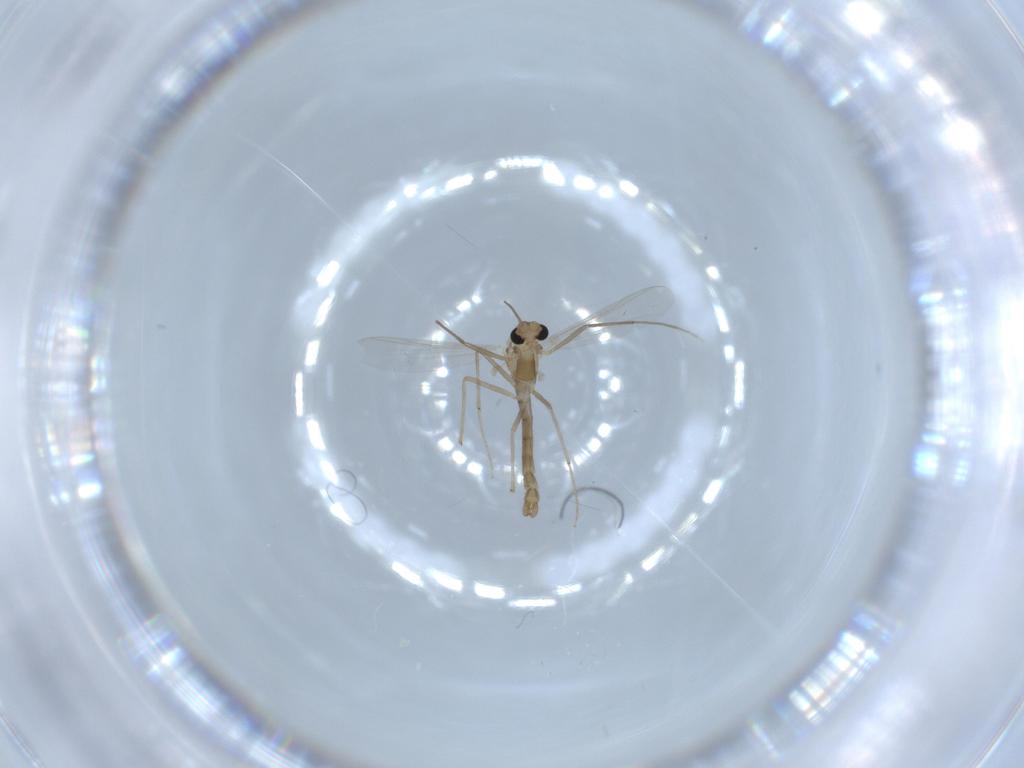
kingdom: Animalia
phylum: Arthropoda
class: Insecta
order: Diptera
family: Chironomidae
